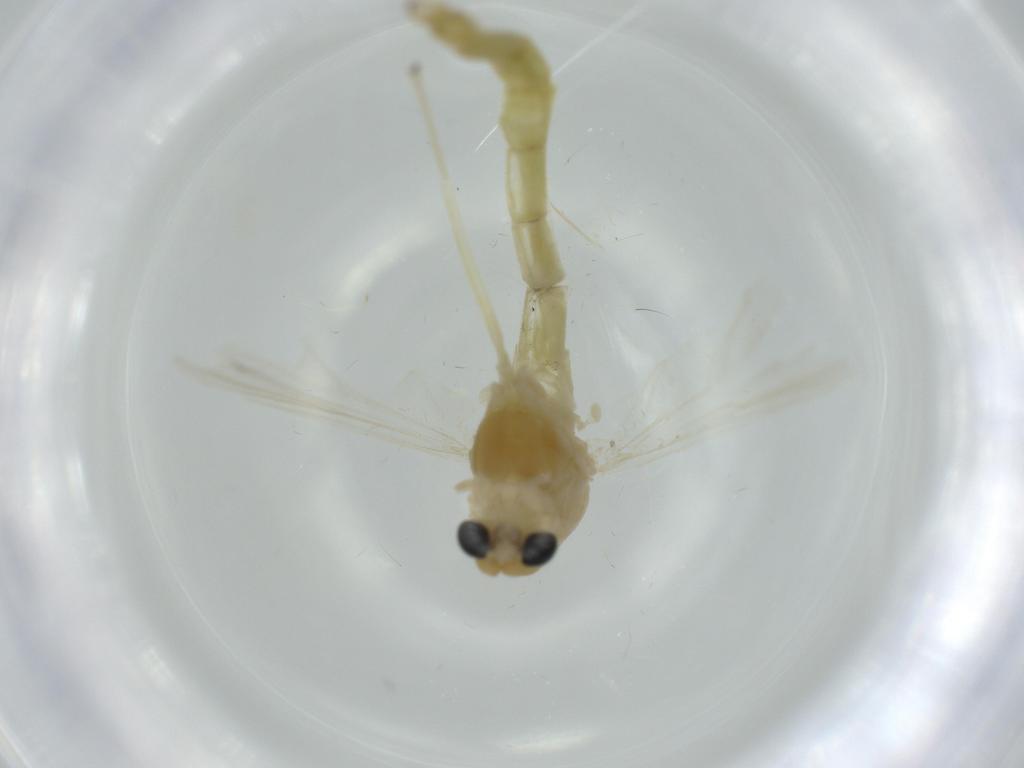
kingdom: Animalia
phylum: Arthropoda
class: Insecta
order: Diptera
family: Chironomidae
